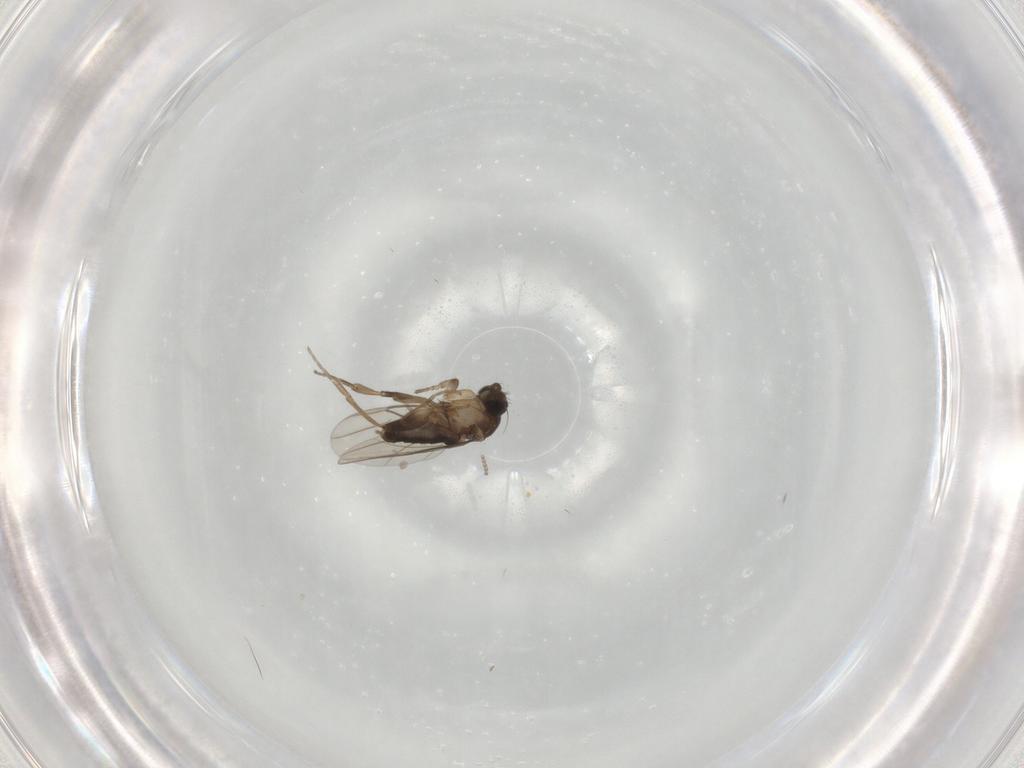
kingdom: Animalia
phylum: Arthropoda
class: Insecta
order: Diptera
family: Phoridae
